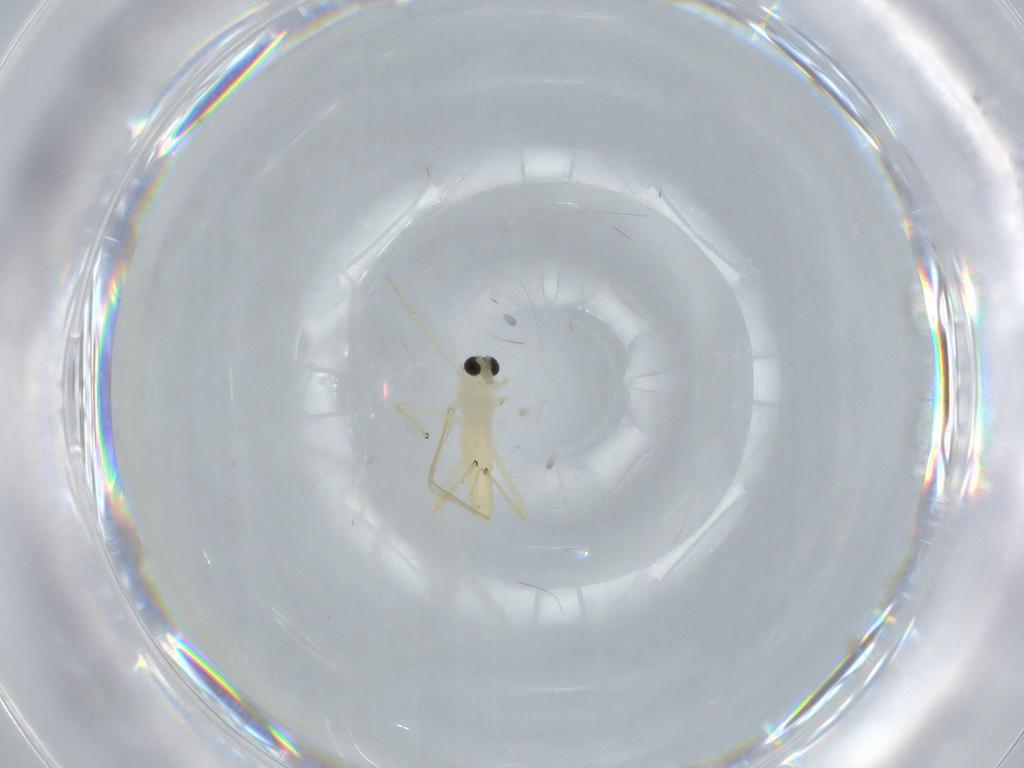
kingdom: Animalia
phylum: Arthropoda
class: Insecta
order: Diptera
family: Chironomidae
